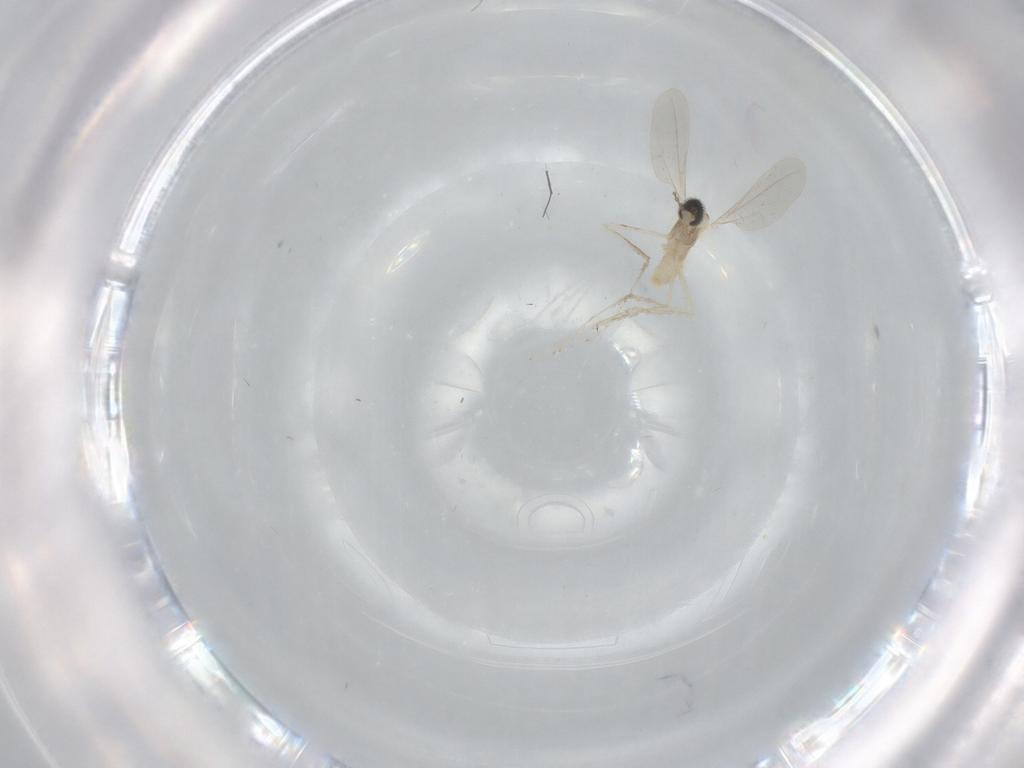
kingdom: Animalia
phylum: Arthropoda
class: Insecta
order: Diptera
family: Cecidomyiidae
